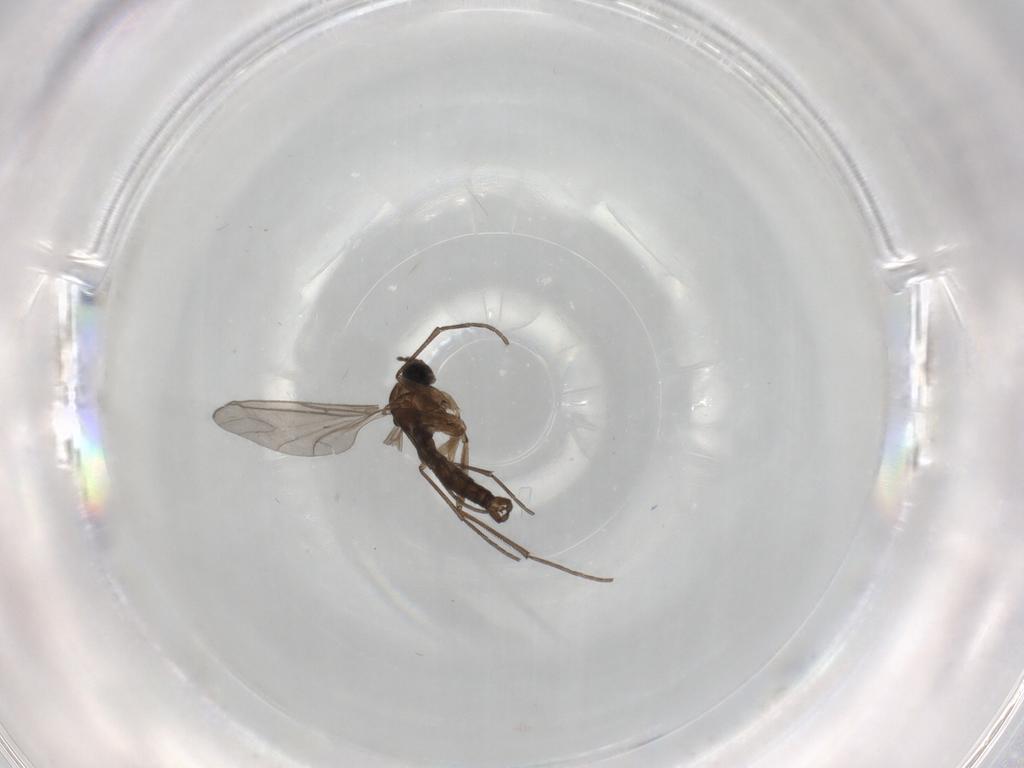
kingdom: Animalia
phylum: Arthropoda
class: Insecta
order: Diptera
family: Sciaridae
